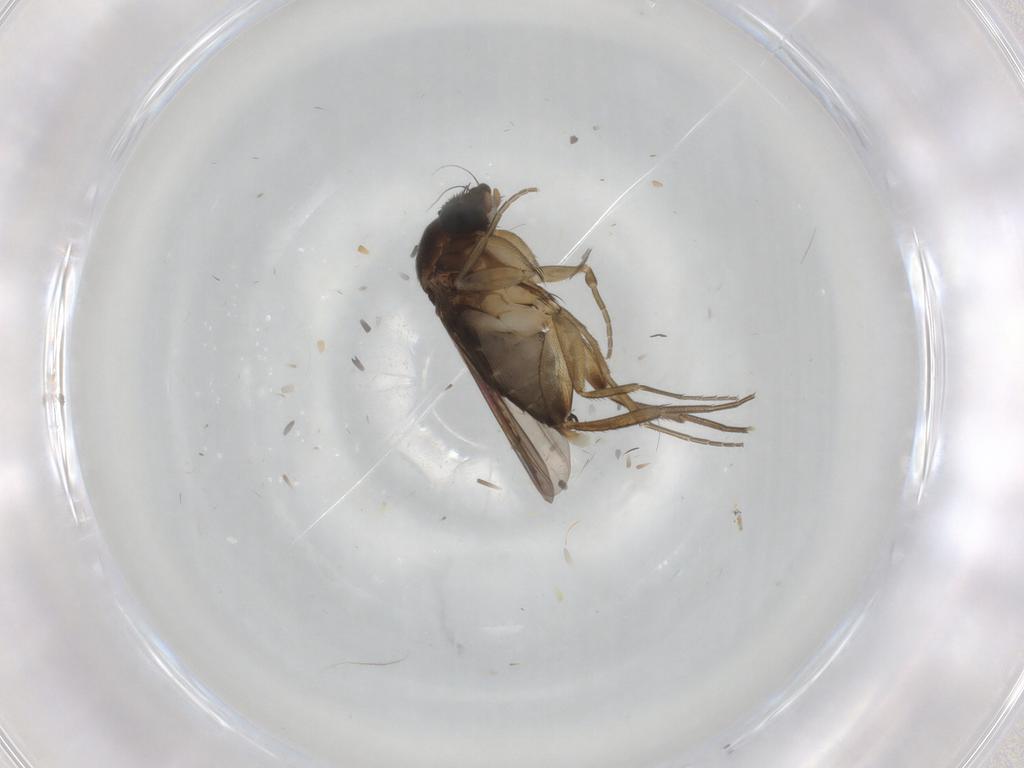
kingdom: Animalia
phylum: Arthropoda
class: Insecta
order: Diptera
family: Phoridae
